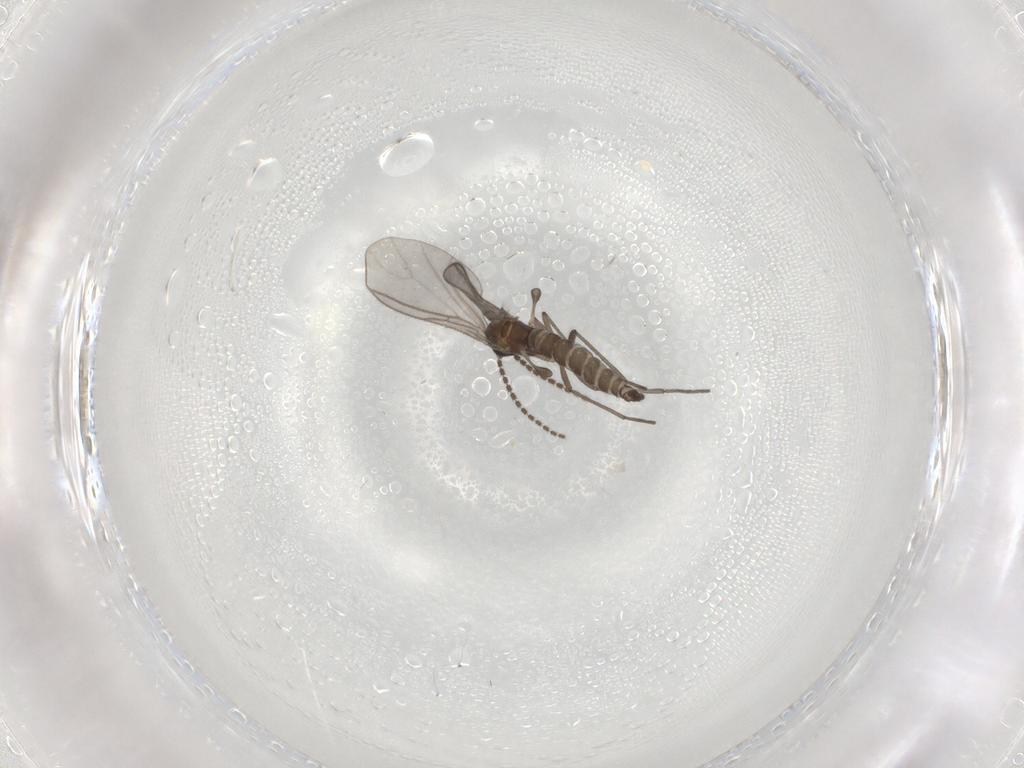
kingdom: Animalia
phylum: Arthropoda
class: Insecta
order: Diptera
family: Psychodidae
